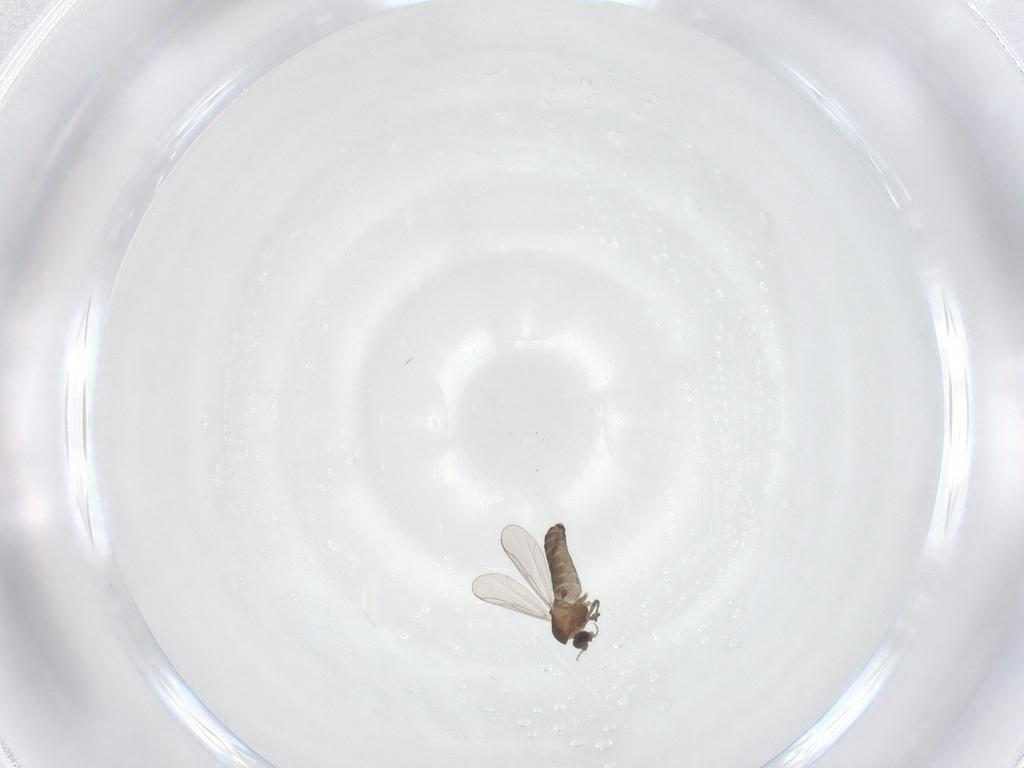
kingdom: Animalia
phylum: Arthropoda
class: Insecta
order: Diptera
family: Chironomidae
